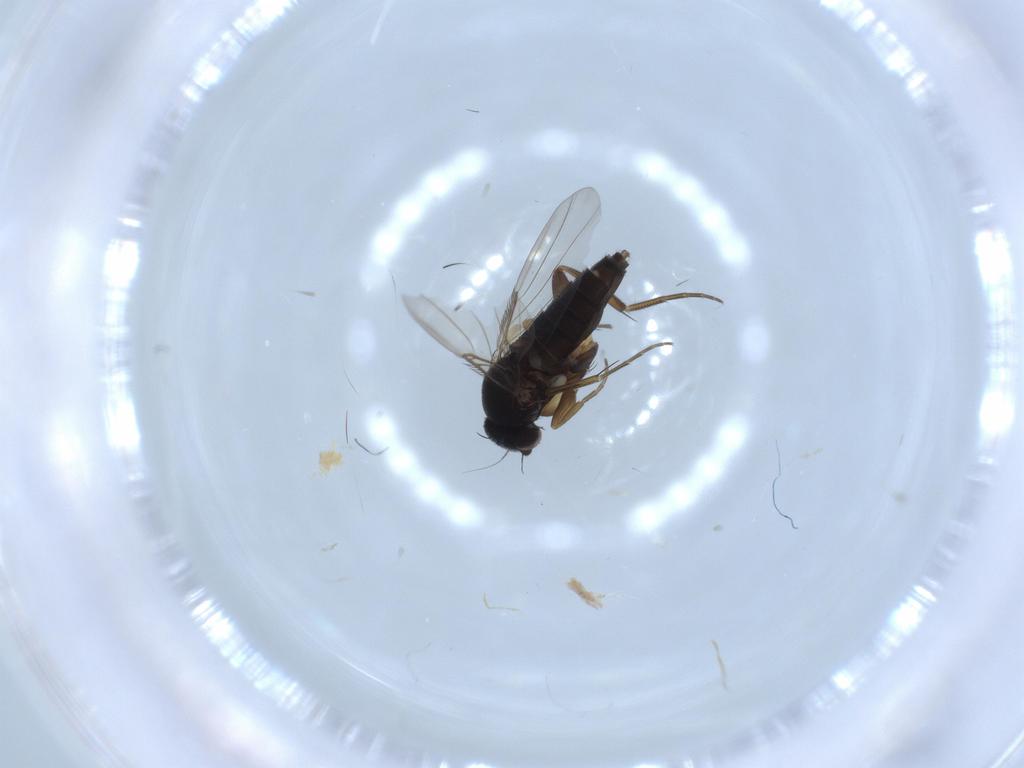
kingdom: Animalia
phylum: Arthropoda
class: Insecta
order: Diptera
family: Phoridae
